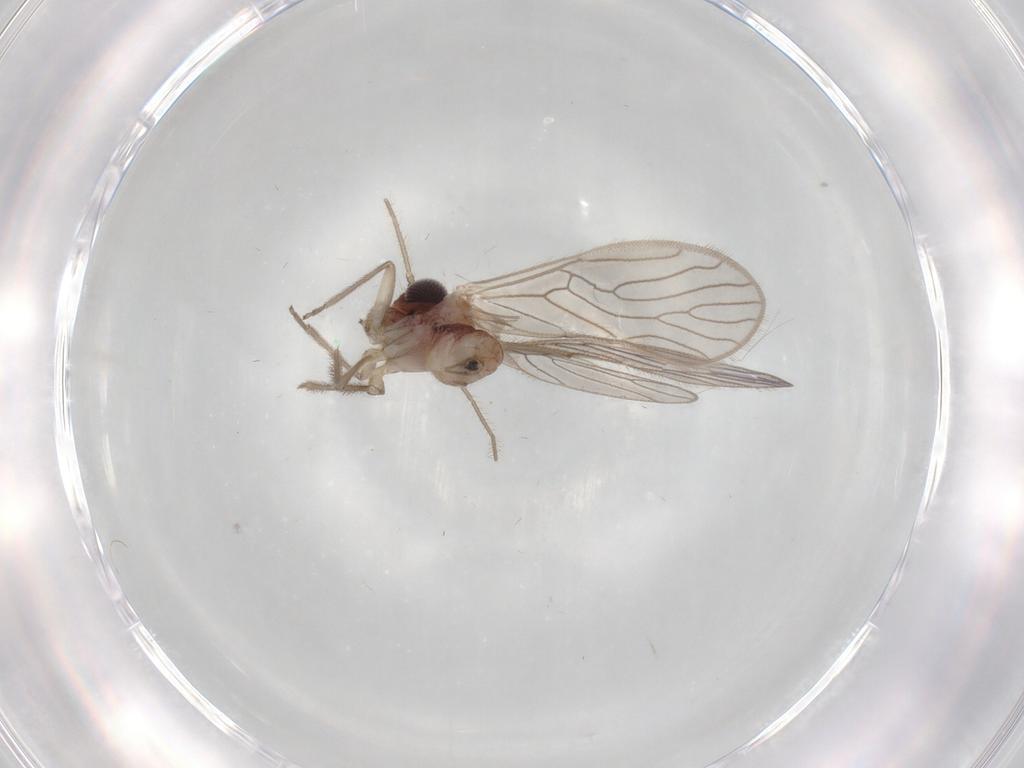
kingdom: Animalia
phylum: Arthropoda
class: Insecta
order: Psocodea
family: Epipsocidae
